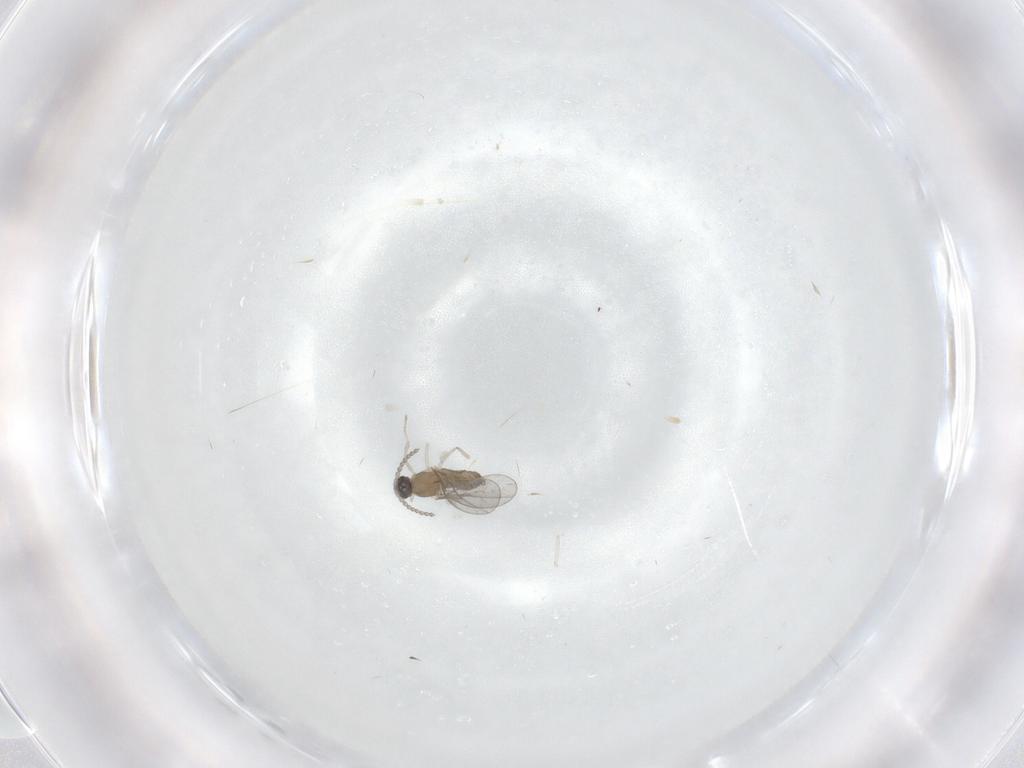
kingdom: Animalia
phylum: Arthropoda
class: Insecta
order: Diptera
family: Cecidomyiidae
